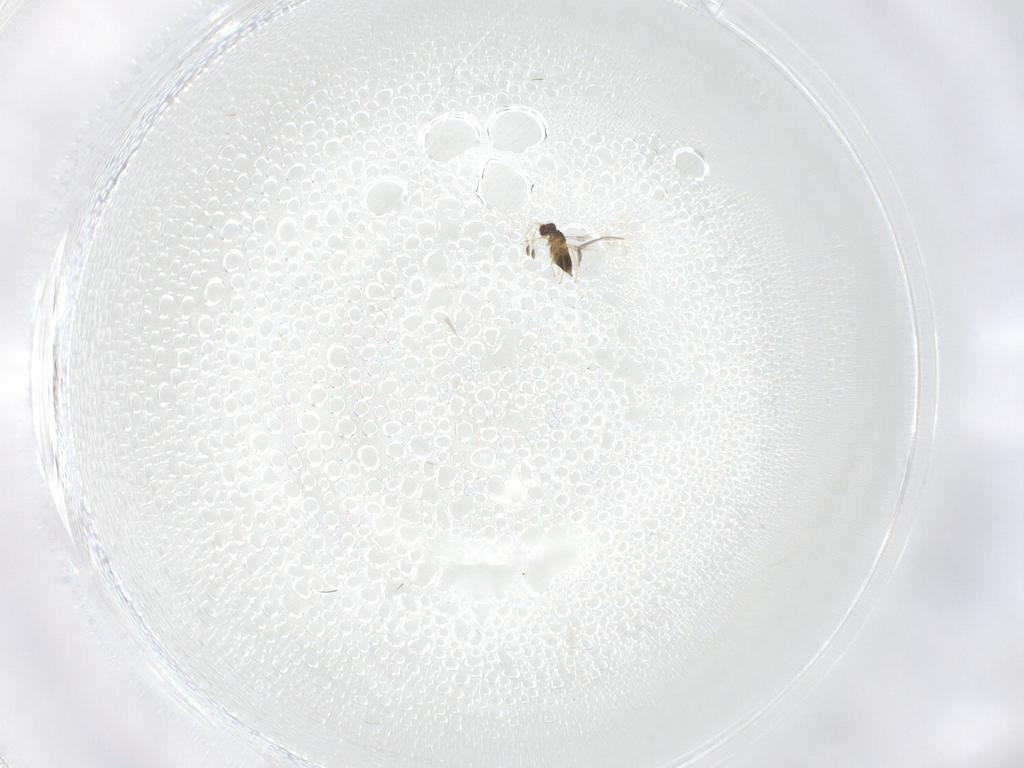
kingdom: Animalia
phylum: Arthropoda
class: Insecta
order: Hymenoptera
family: Mymaridae
